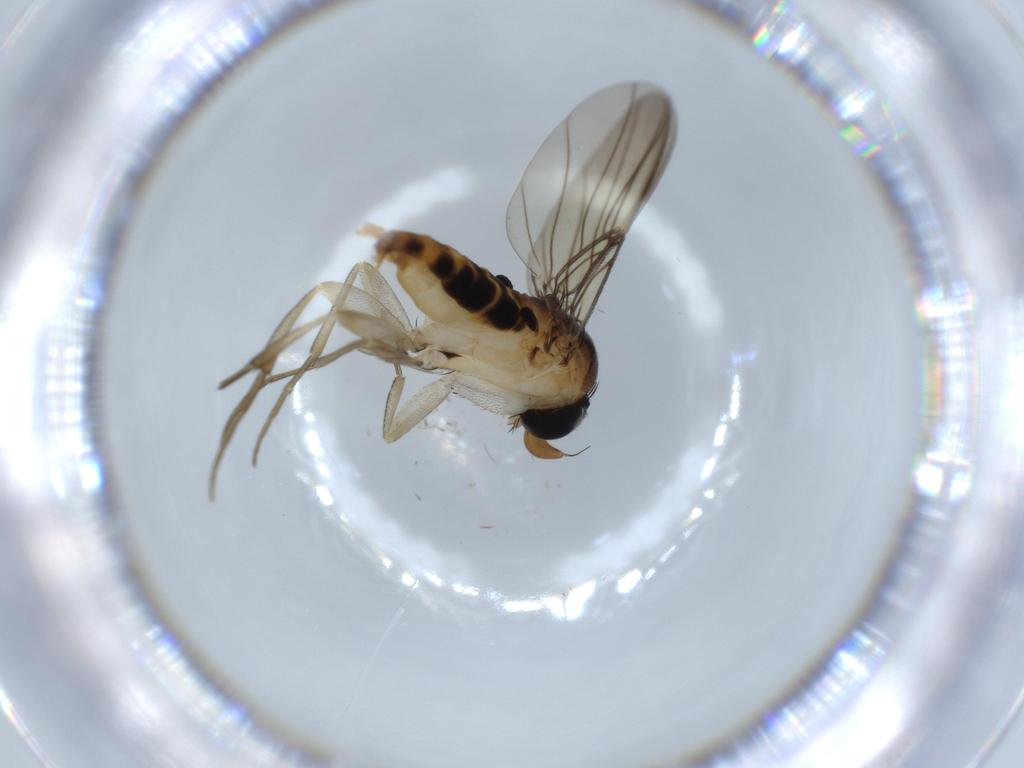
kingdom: Animalia
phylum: Arthropoda
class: Insecta
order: Diptera
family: Phoridae
